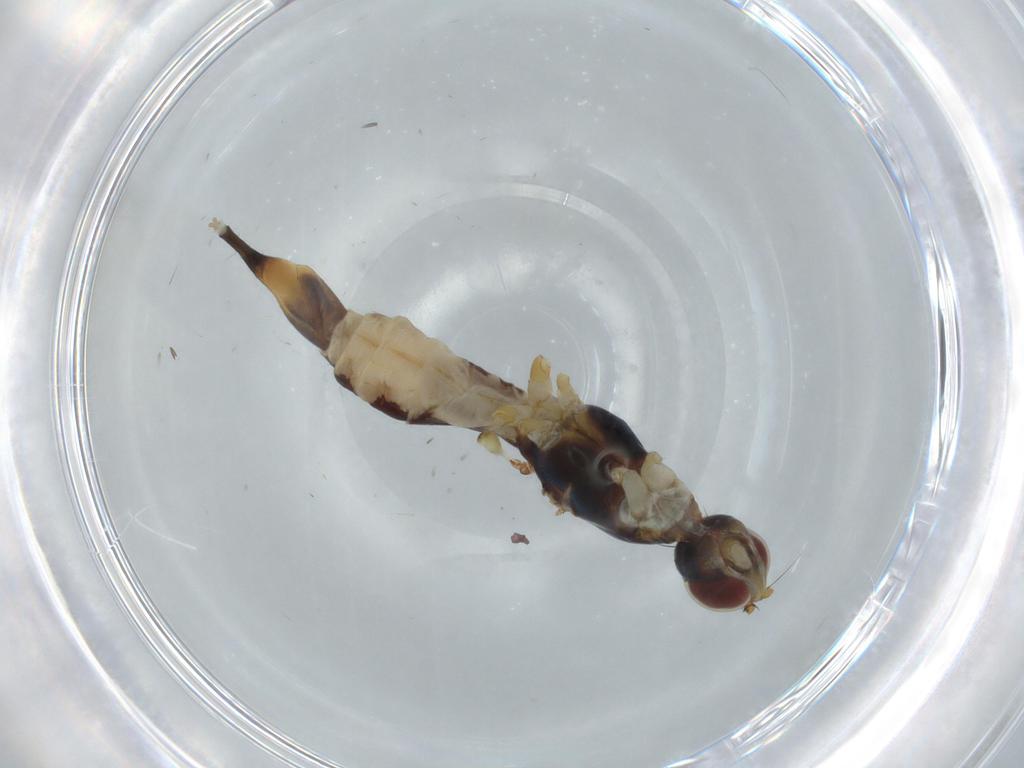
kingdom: Animalia
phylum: Arthropoda
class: Insecta
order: Diptera
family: Micropezidae
